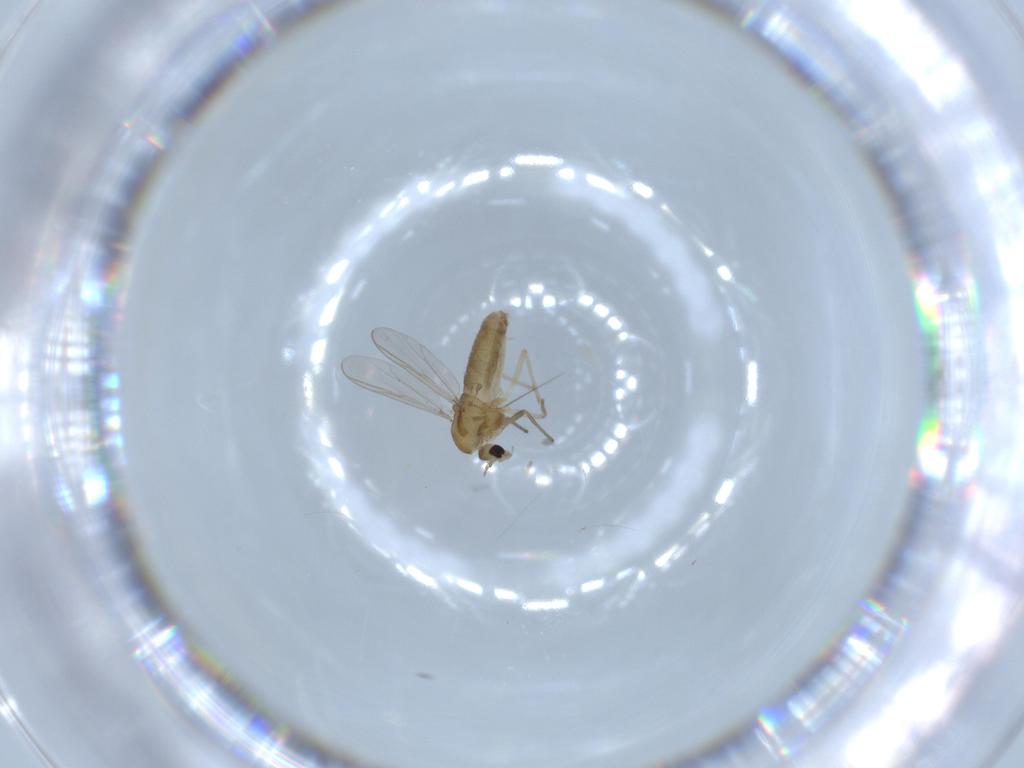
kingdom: Animalia
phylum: Arthropoda
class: Insecta
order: Diptera
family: Chironomidae
